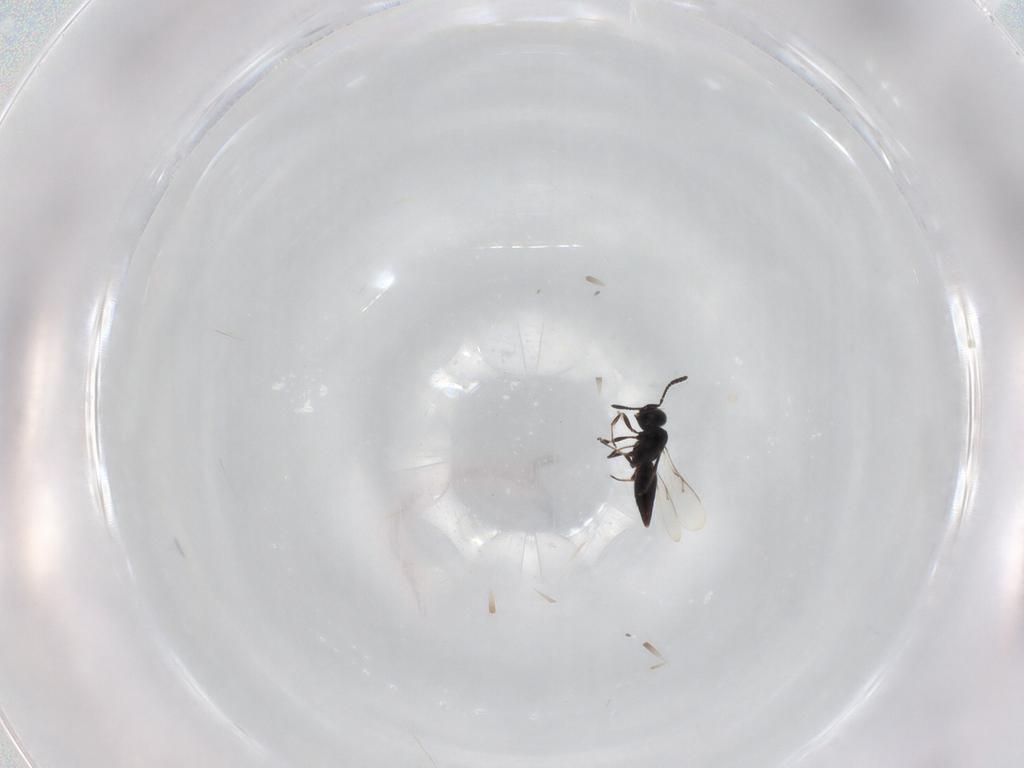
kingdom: Animalia
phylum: Arthropoda
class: Insecta
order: Hymenoptera
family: Scelionidae
